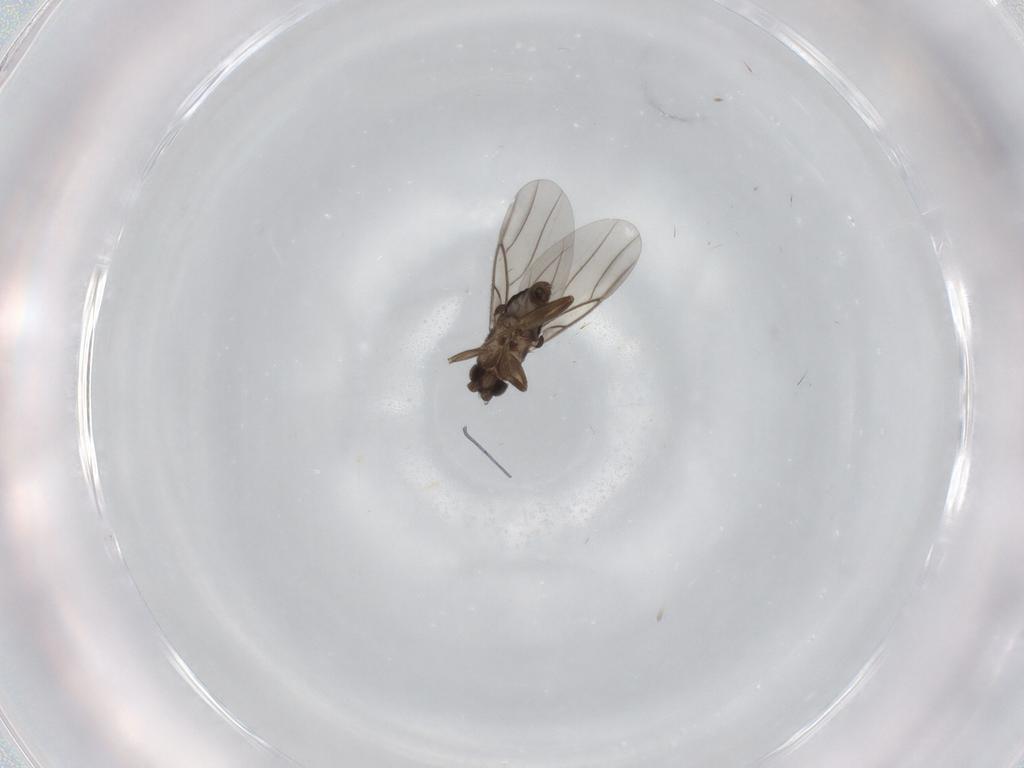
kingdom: Animalia
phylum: Arthropoda
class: Insecta
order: Diptera
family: Phoridae
